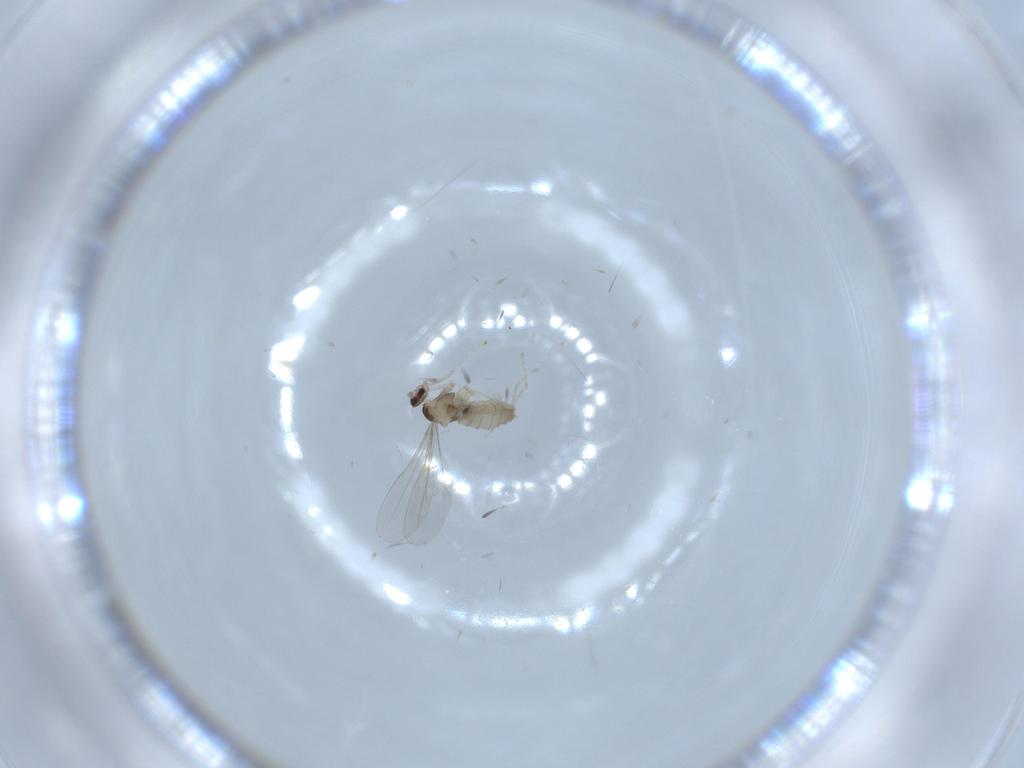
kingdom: Animalia
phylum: Arthropoda
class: Insecta
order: Diptera
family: Cecidomyiidae
